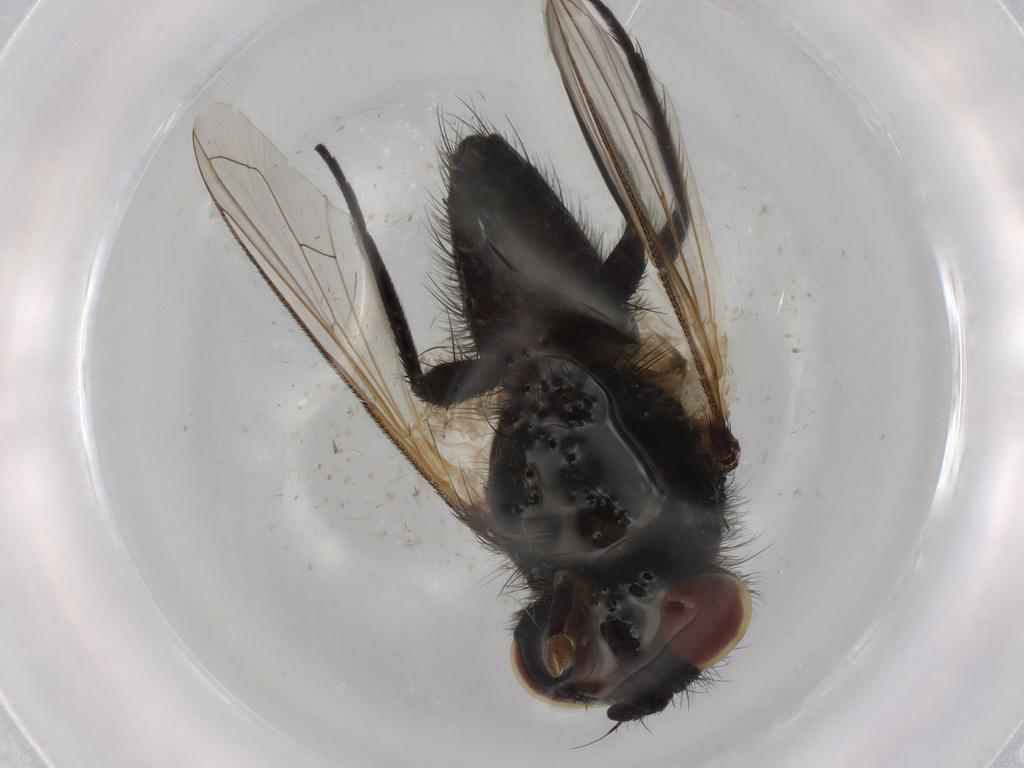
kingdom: Animalia
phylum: Arthropoda
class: Insecta
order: Diptera
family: Tachinidae
